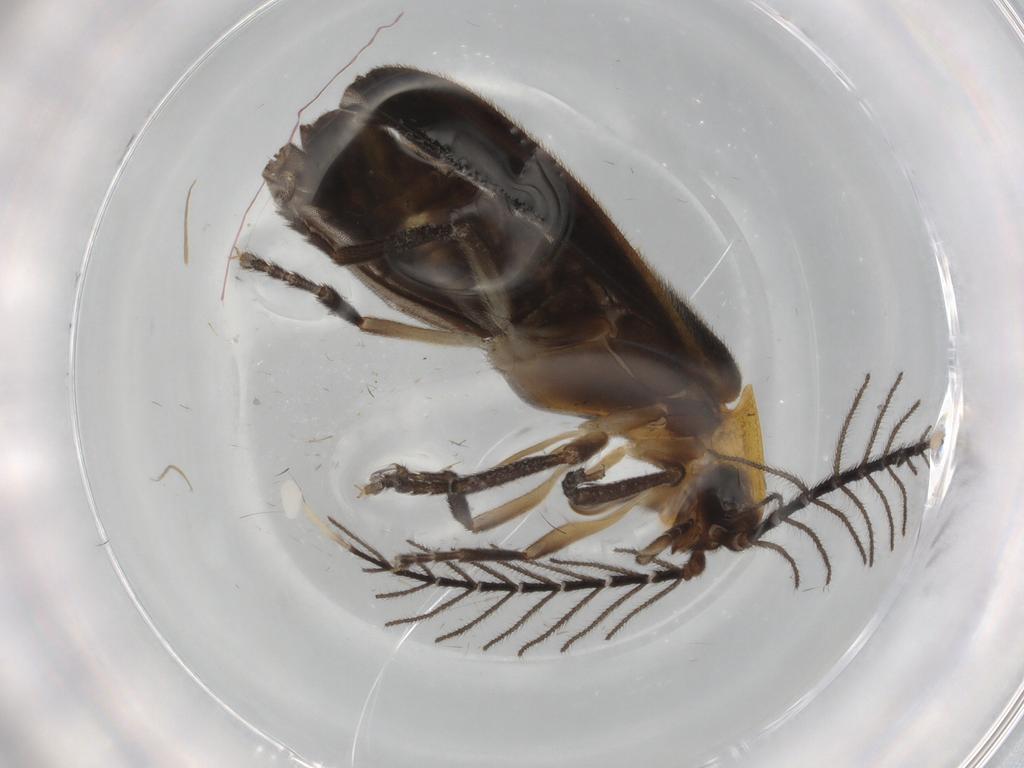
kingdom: Animalia
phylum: Arthropoda
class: Insecta
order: Coleoptera
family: Lampyridae
